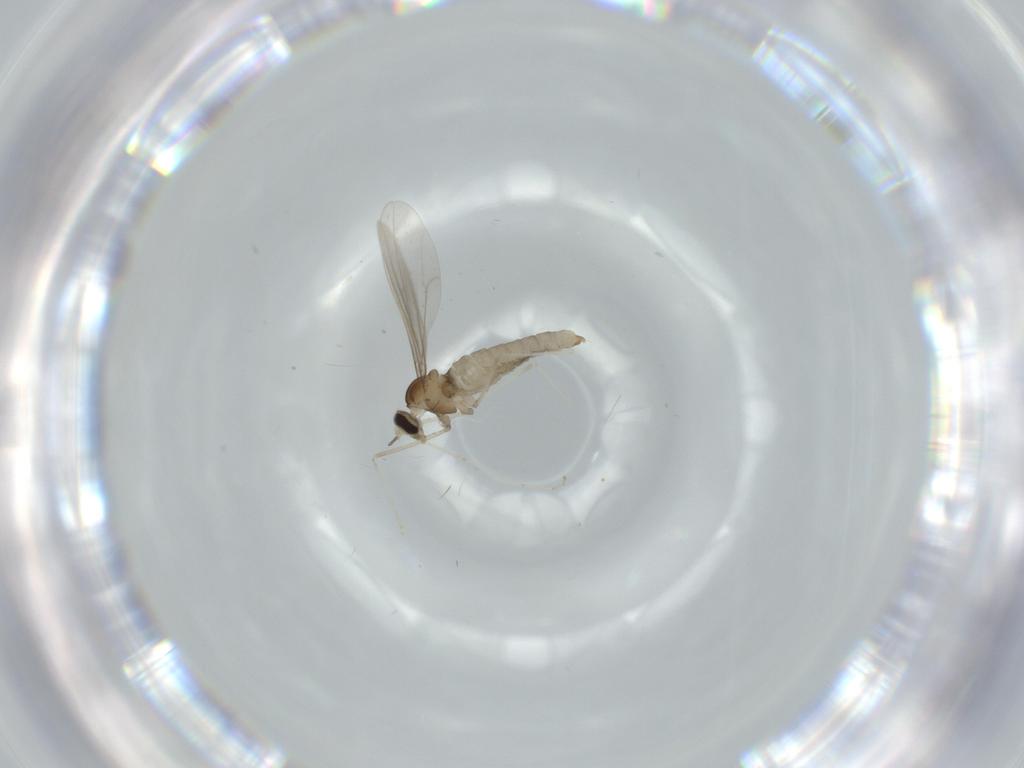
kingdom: Animalia
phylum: Arthropoda
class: Insecta
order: Diptera
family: Cecidomyiidae
